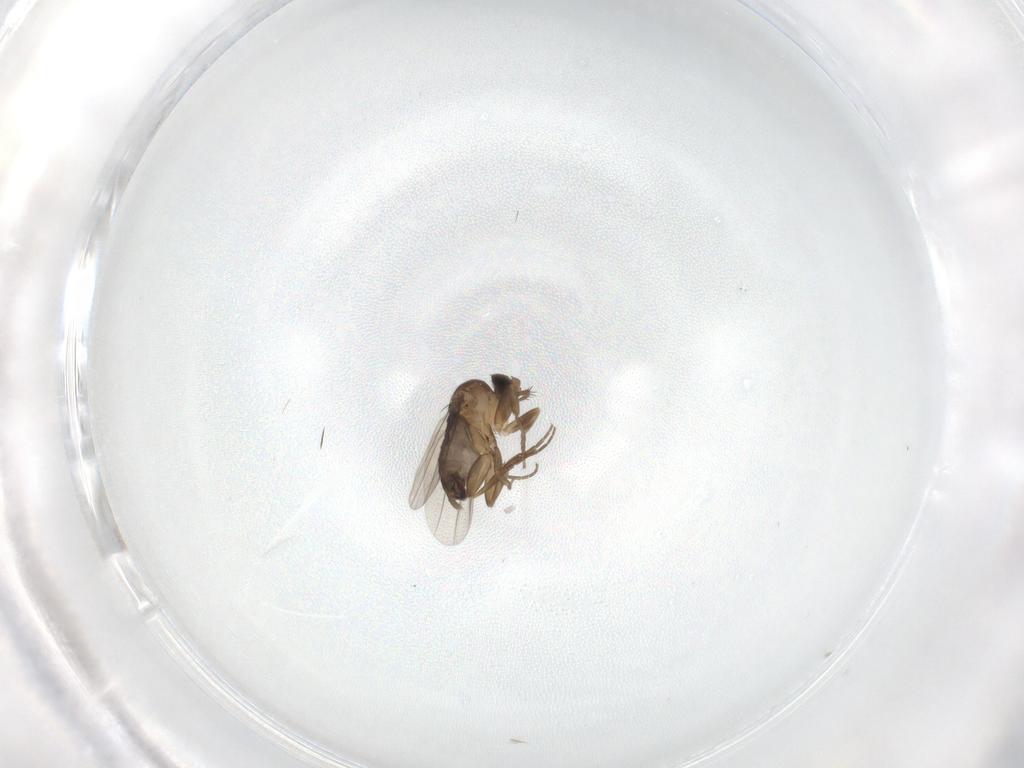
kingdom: Animalia
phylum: Arthropoda
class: Insecta
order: Diptera
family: Phoridae
